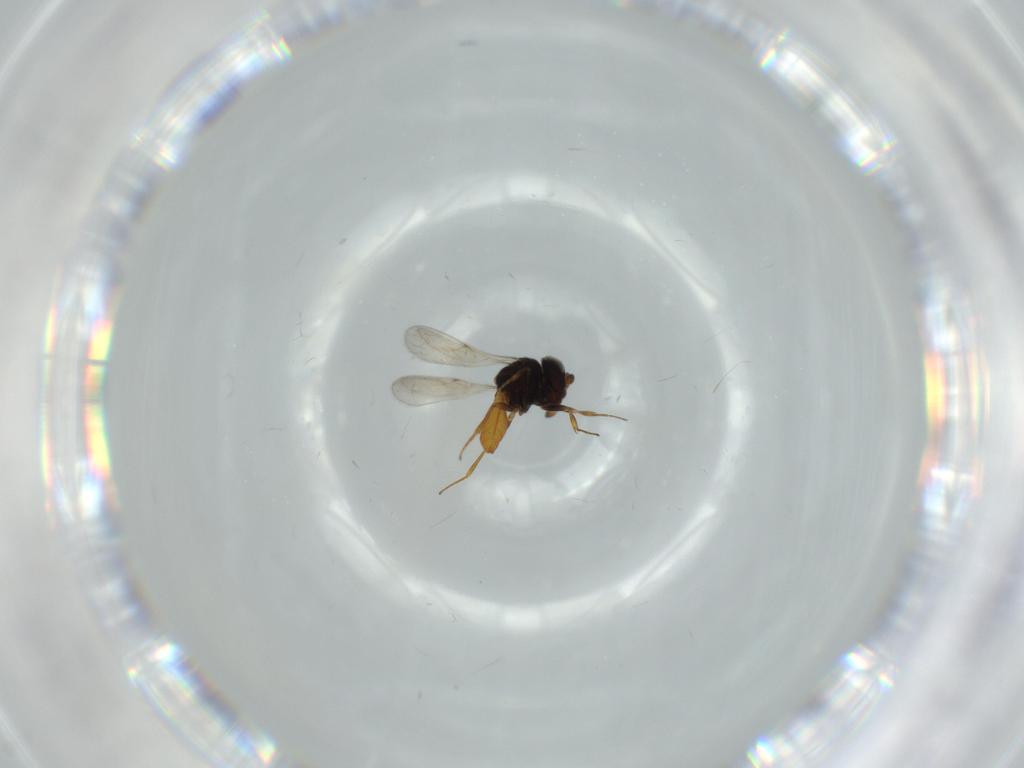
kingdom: Animalia
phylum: Arthropoda
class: Insecta
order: Hymenoptera
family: Scelionidae
